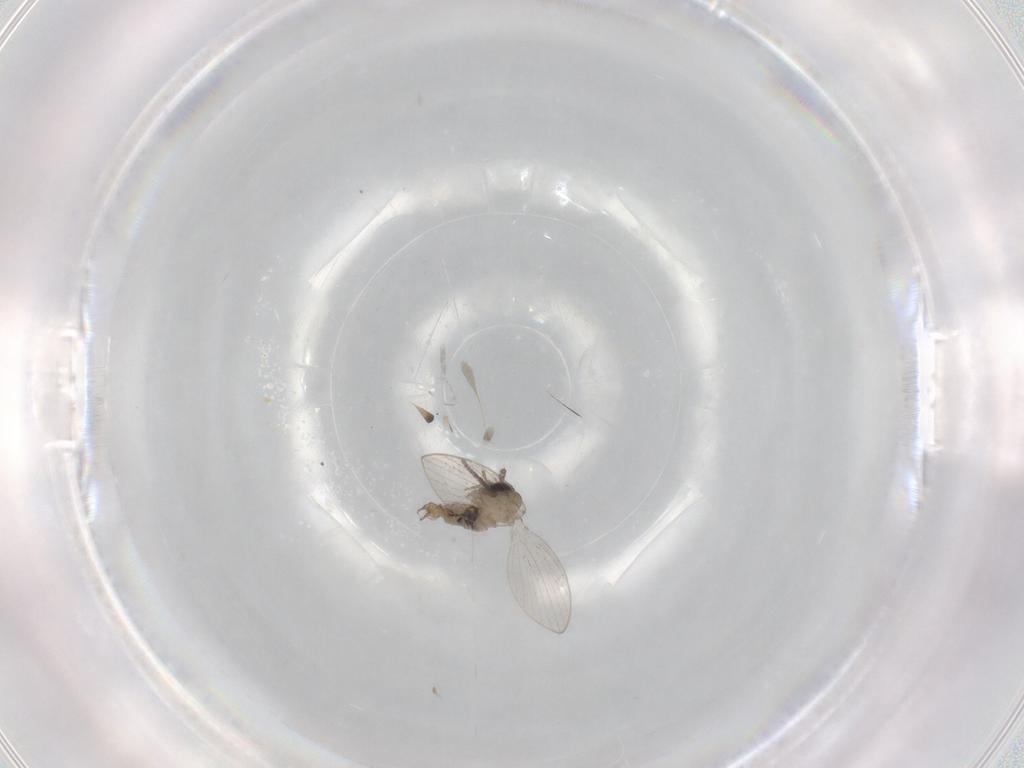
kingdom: Animalia
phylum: Arthropoda
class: Insecta
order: Diptera
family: Psychodidae
